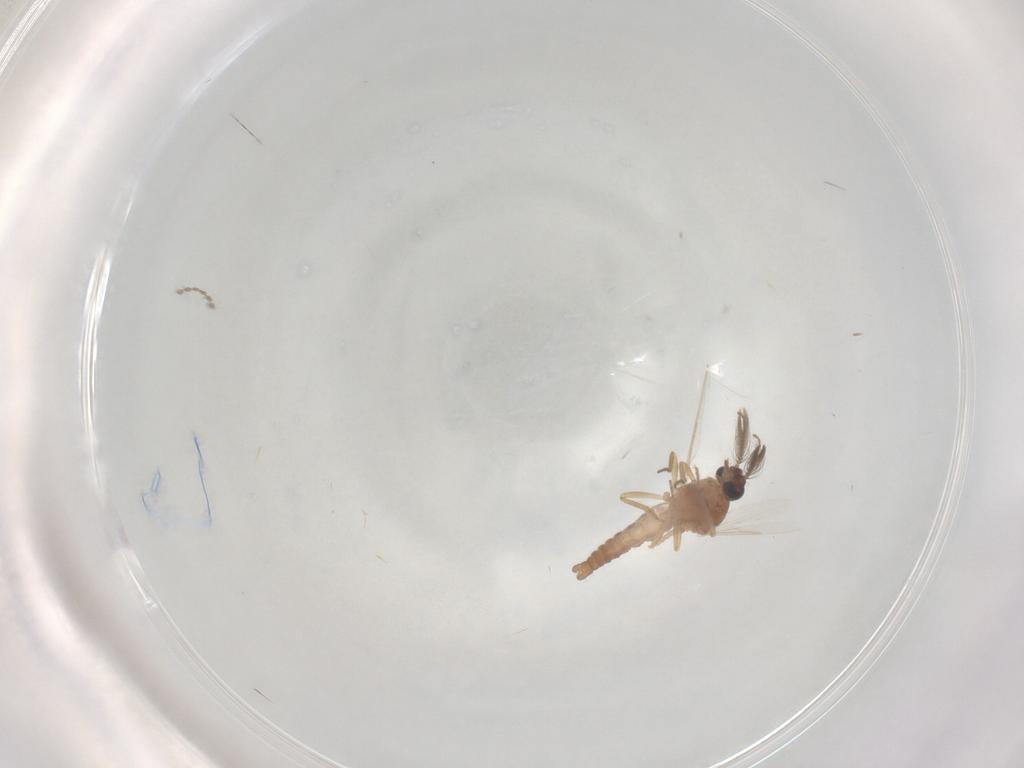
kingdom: Animalia
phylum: Arthropoda
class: Insecta
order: Diptera
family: Ceratopogonidae
